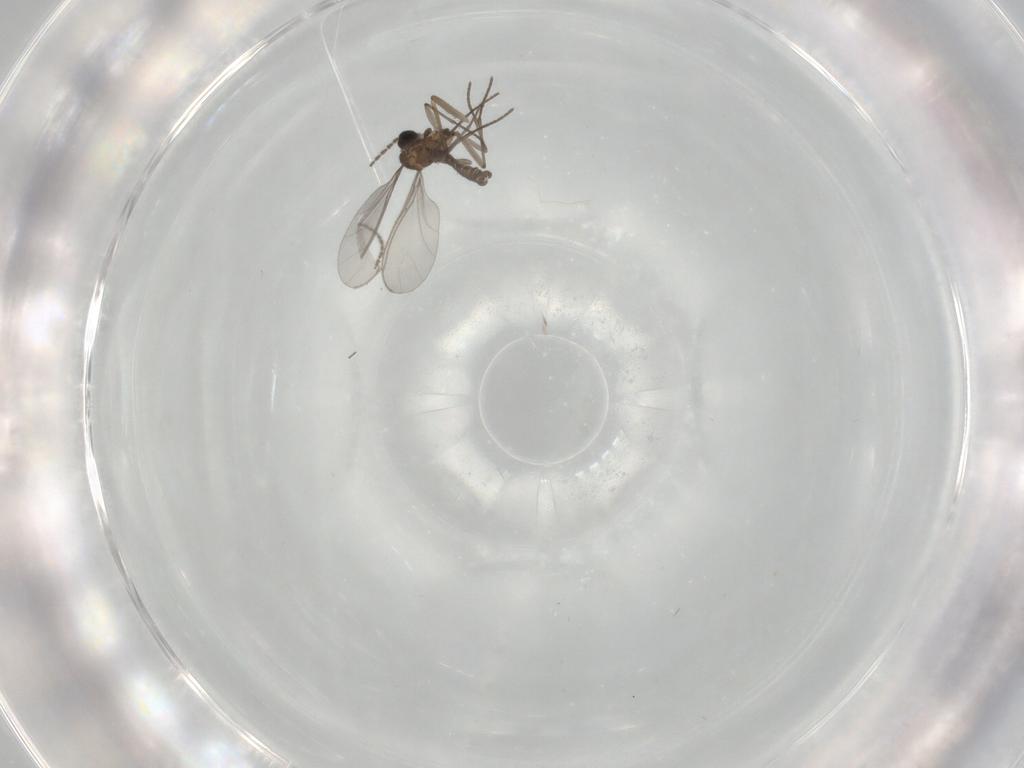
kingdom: Animalia
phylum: Arthropoda
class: Insecta
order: Diptera
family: Chironomidae
